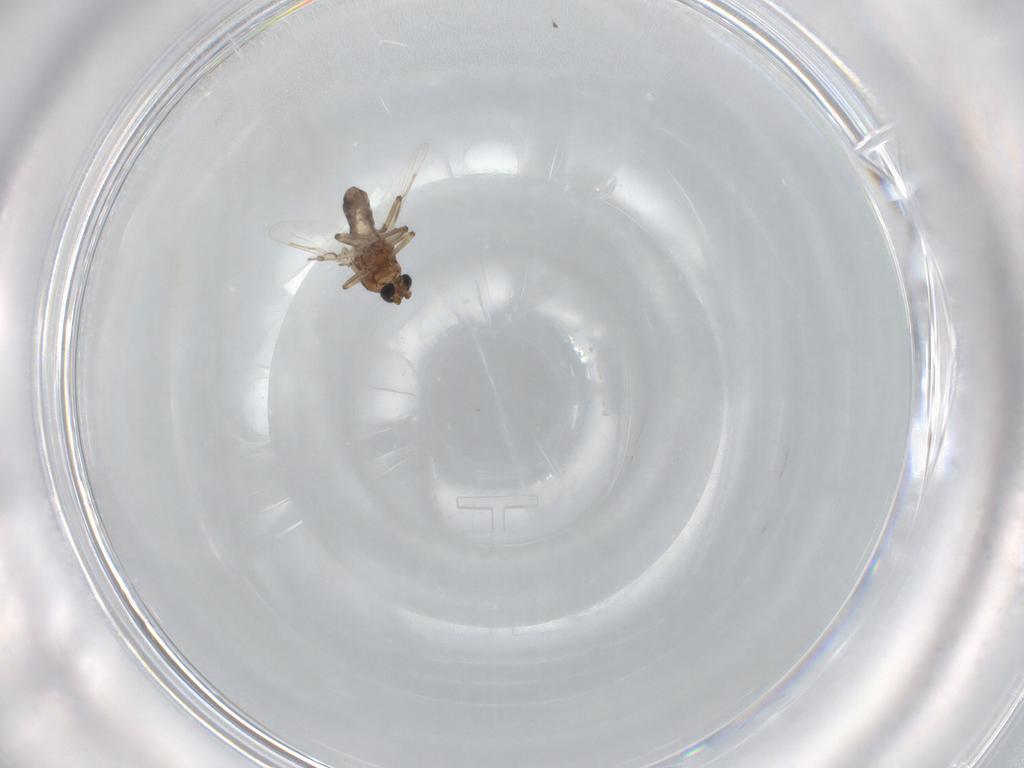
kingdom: Animalia
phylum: Arthropoda
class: Insecta
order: Diptera
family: Ceratopogonidae
